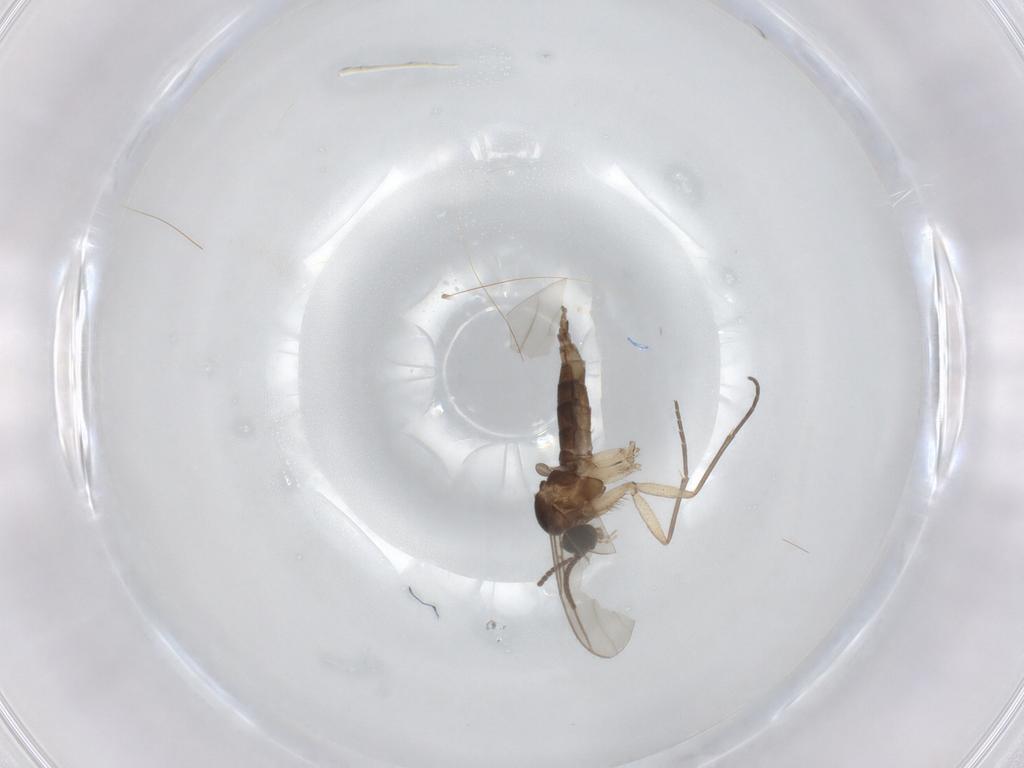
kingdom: Animalia
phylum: Arthropoda
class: Insecta
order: Diptera
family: Sciaridae
